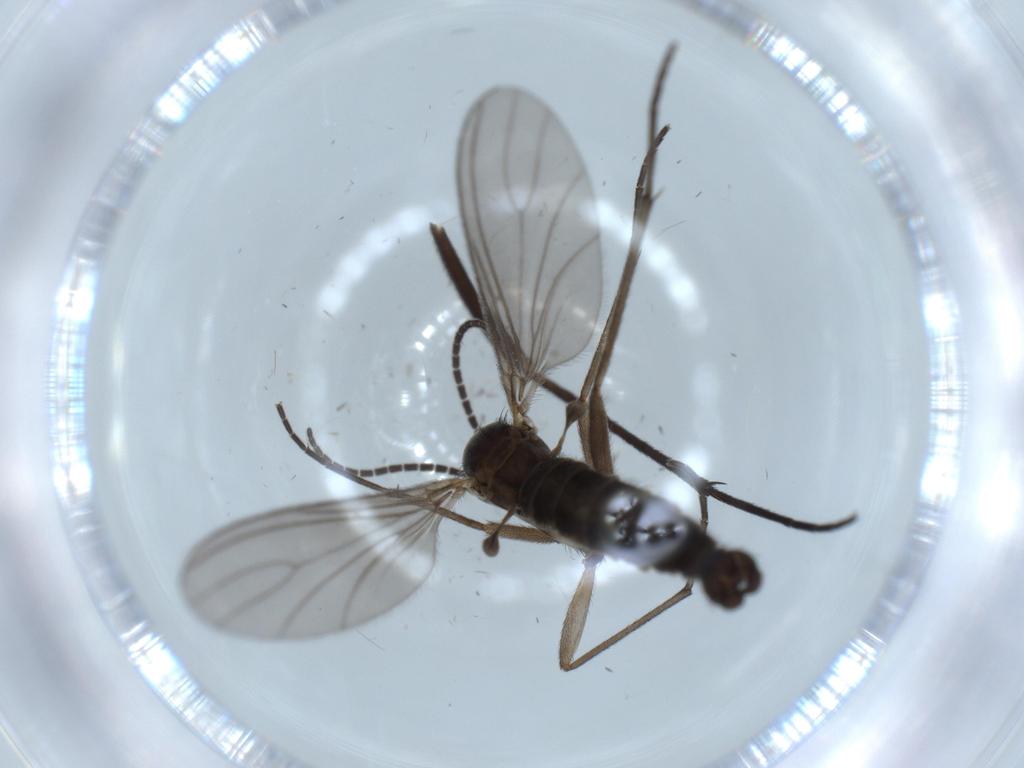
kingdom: Animalia
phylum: Arthropoda
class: Insecta
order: Diptera
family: Sciaridae
